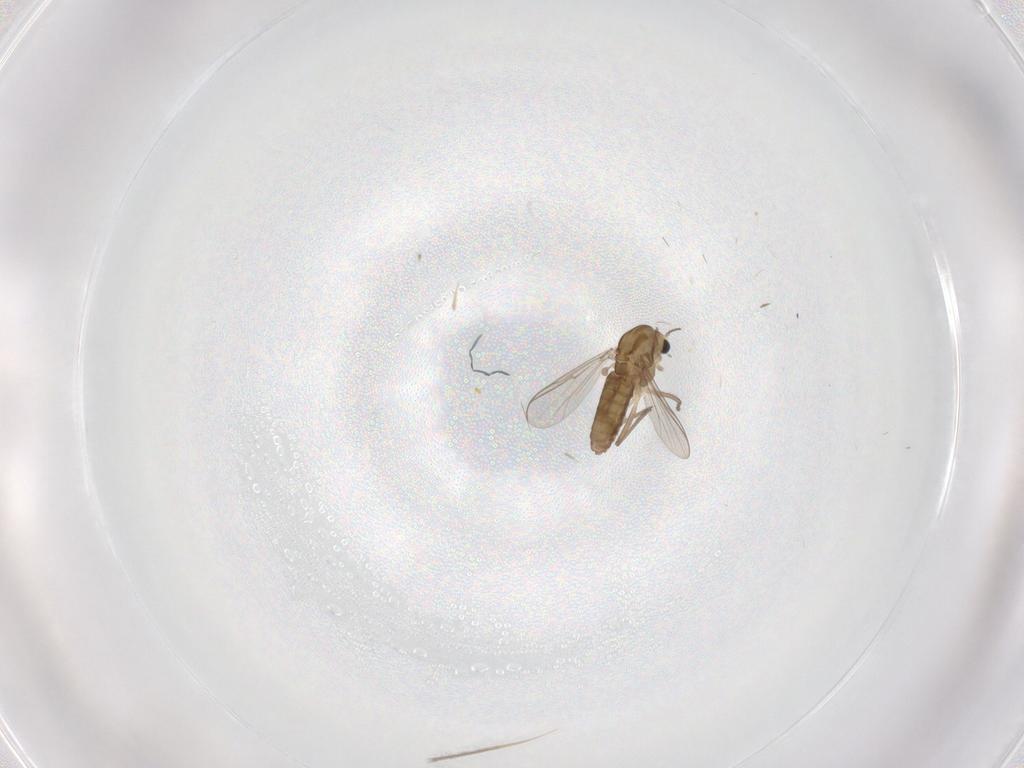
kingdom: Animalia
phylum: Arthropoda
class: Insecta
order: Diptera
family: Chironomidae
